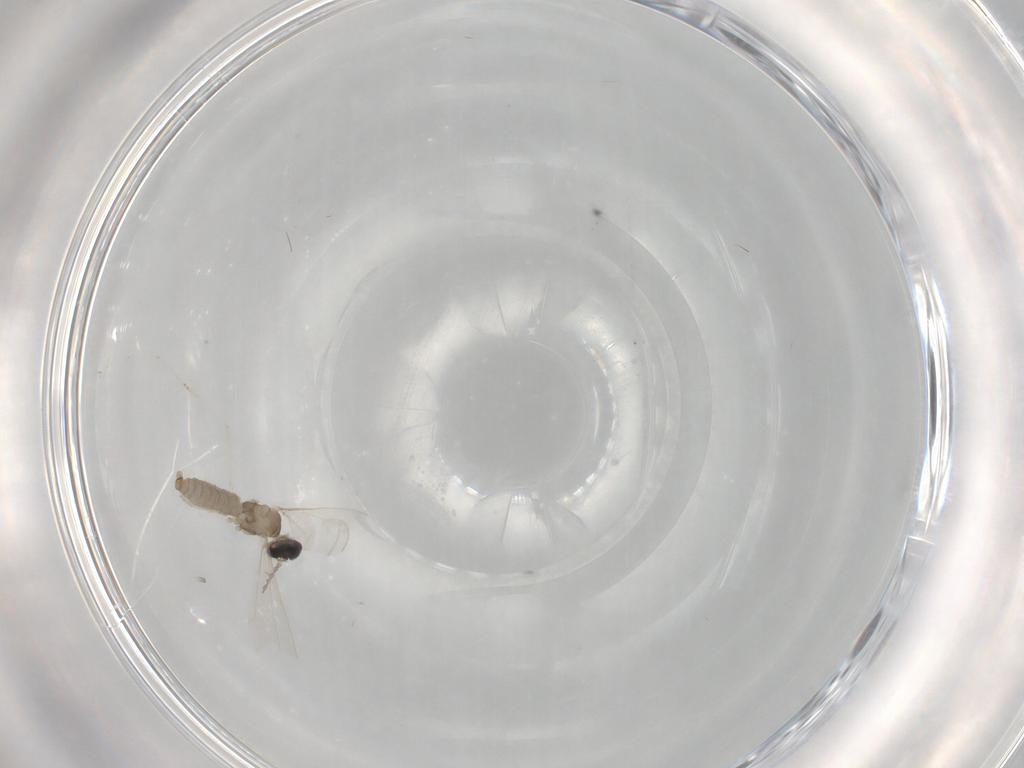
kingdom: Animalia
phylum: Arthropoda
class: Insecta
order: Diptera
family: Cecidomyiidae
